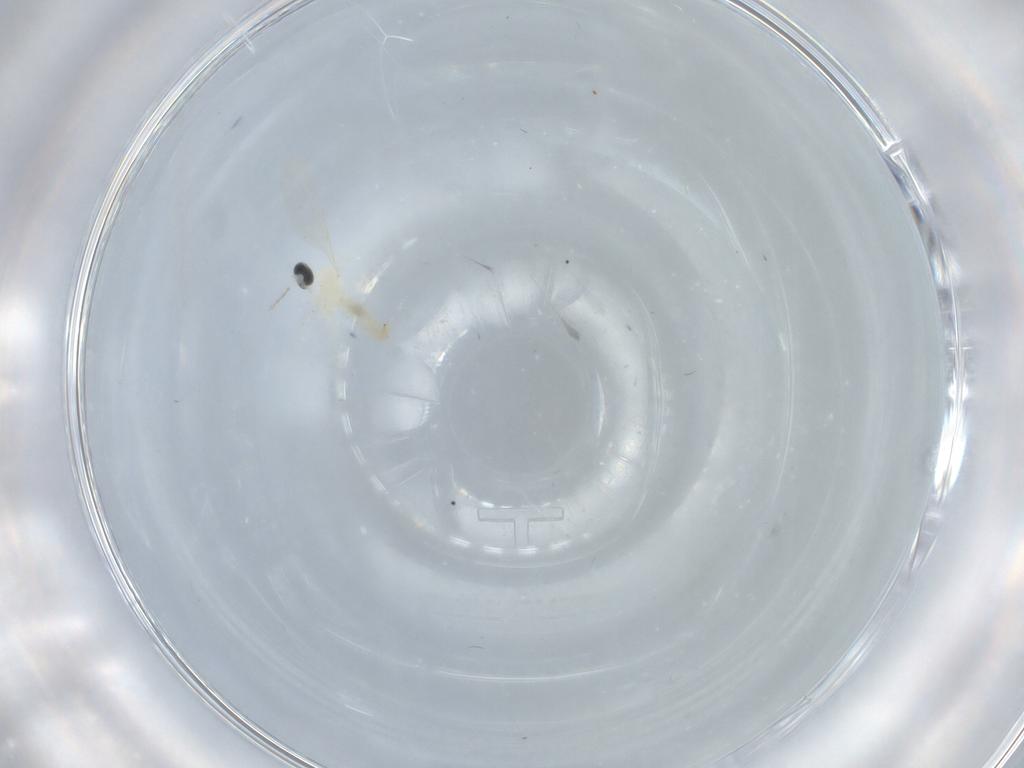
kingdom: Animalia
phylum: Arthropoda
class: Insecta
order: Diptera
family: Cecidomyiidae
